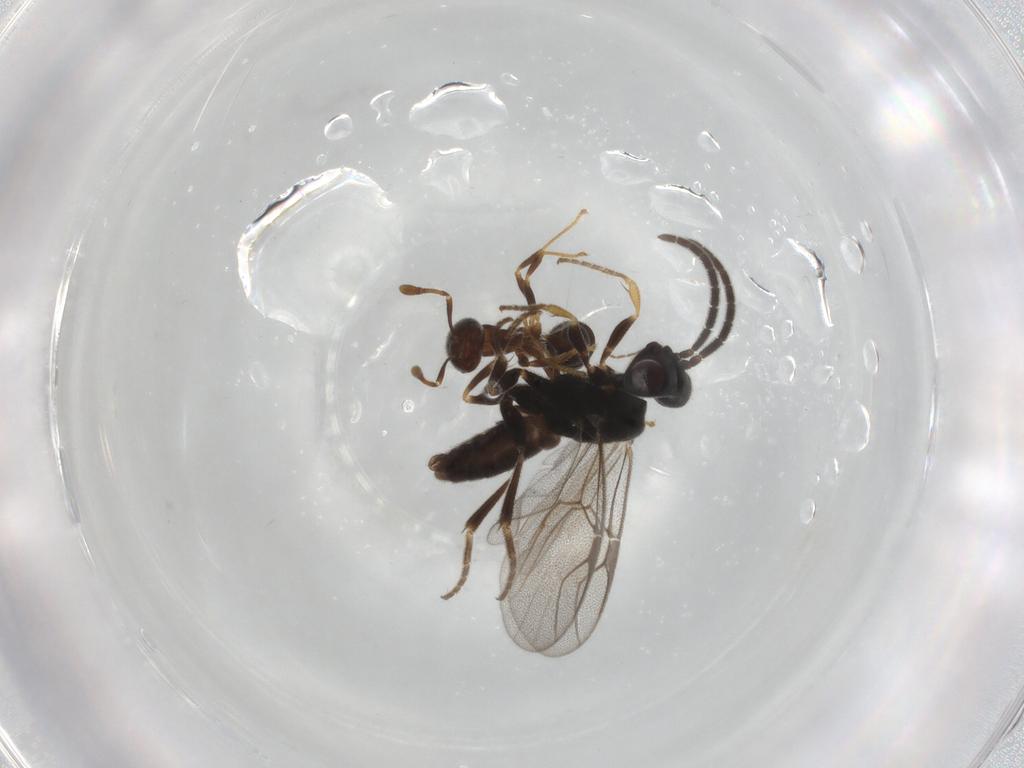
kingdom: Animalia
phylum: Arthropoda
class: Insecta
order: Hymenoptera
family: Dryinidae
